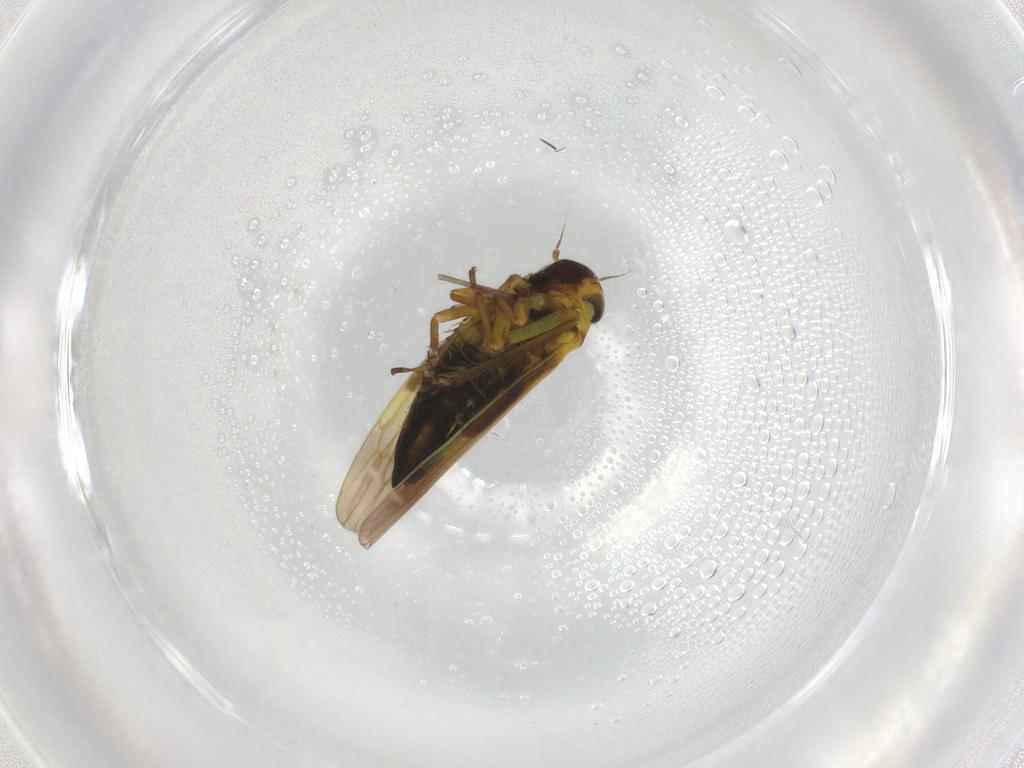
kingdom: Animalia
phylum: Arthropoda
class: Insecta
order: Hemiptera
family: Cicadellidae
